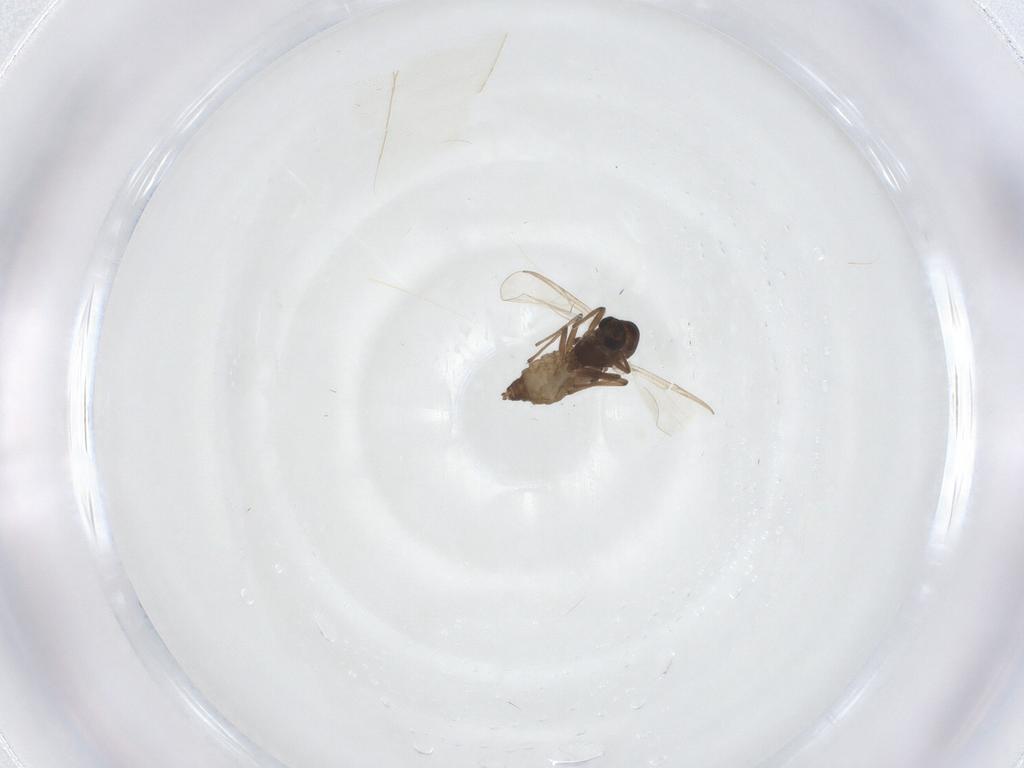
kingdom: Animalia
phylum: Arthropoda
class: Insecta
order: Diptera
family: Chironomidae
